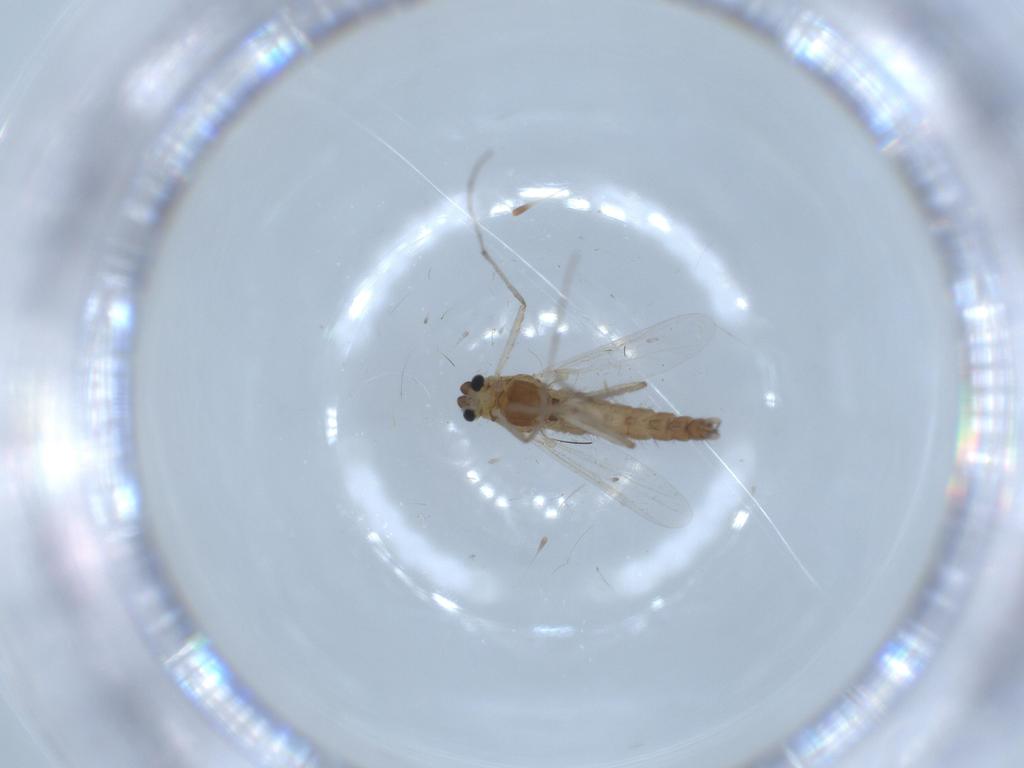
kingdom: Animalia
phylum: Arthropoda
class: Insecta
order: Diptera
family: Chironomidae
